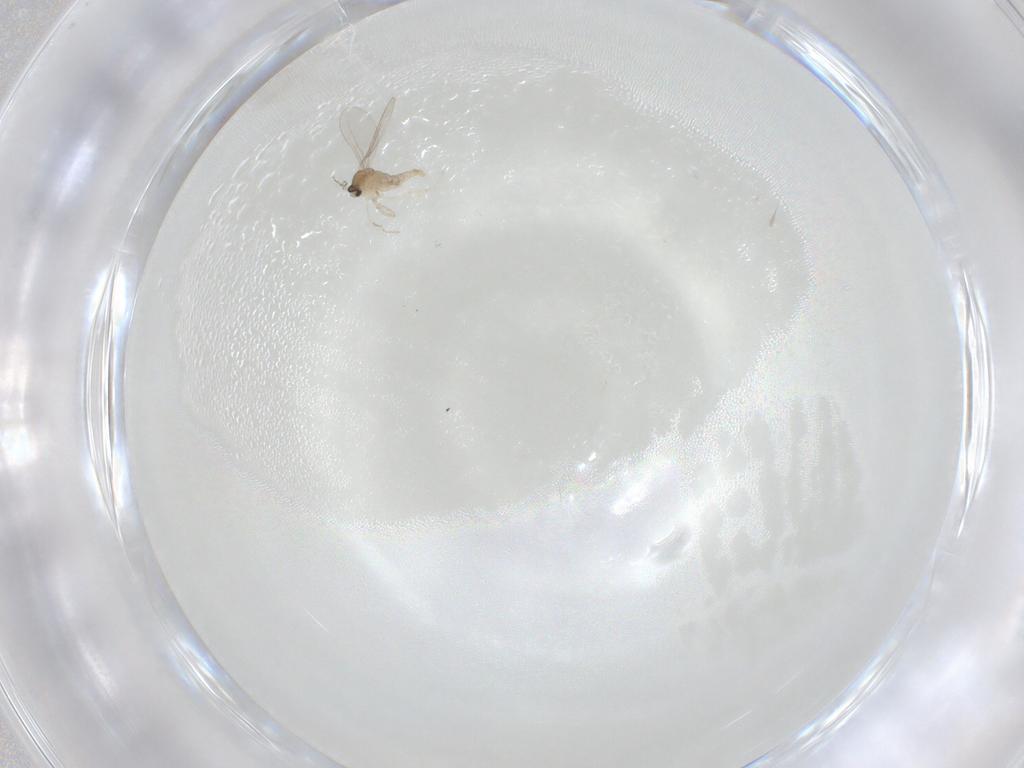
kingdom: Animalia
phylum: Arthropoda
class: Insecta
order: Diptera
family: Cecidomyiidae
